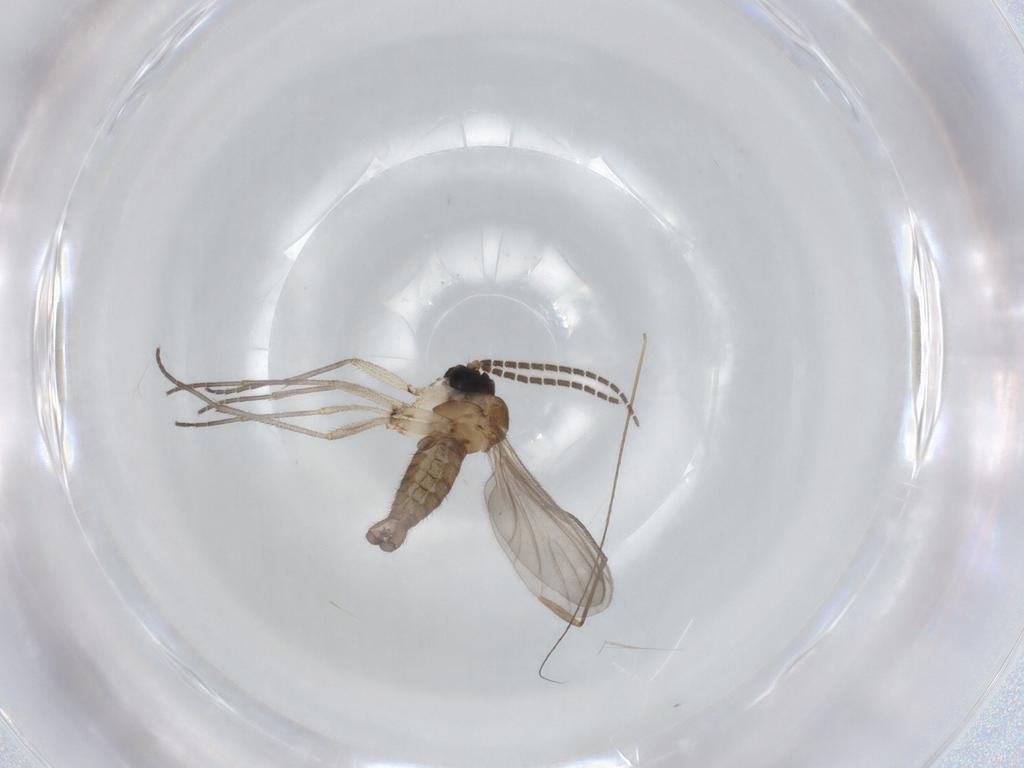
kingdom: Animalia
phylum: Arthropoda
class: Insecta
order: Diptera
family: Sciaridae
